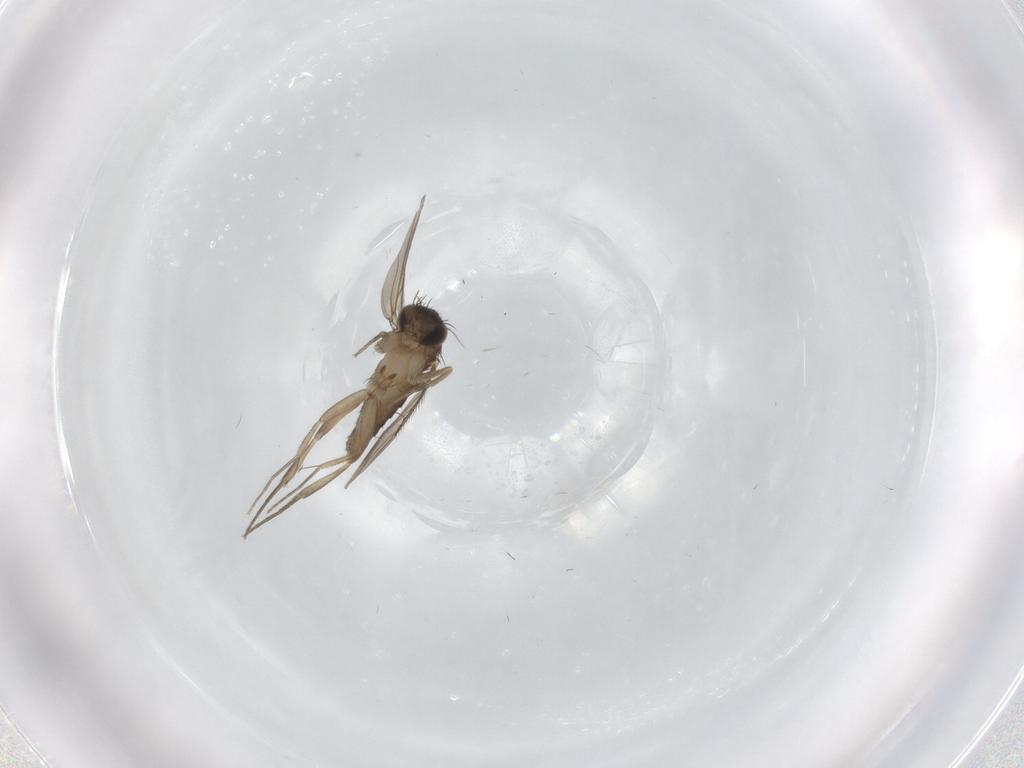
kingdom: Animalia
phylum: Arthropoda
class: Insecta
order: Diptera
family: Phoridae
